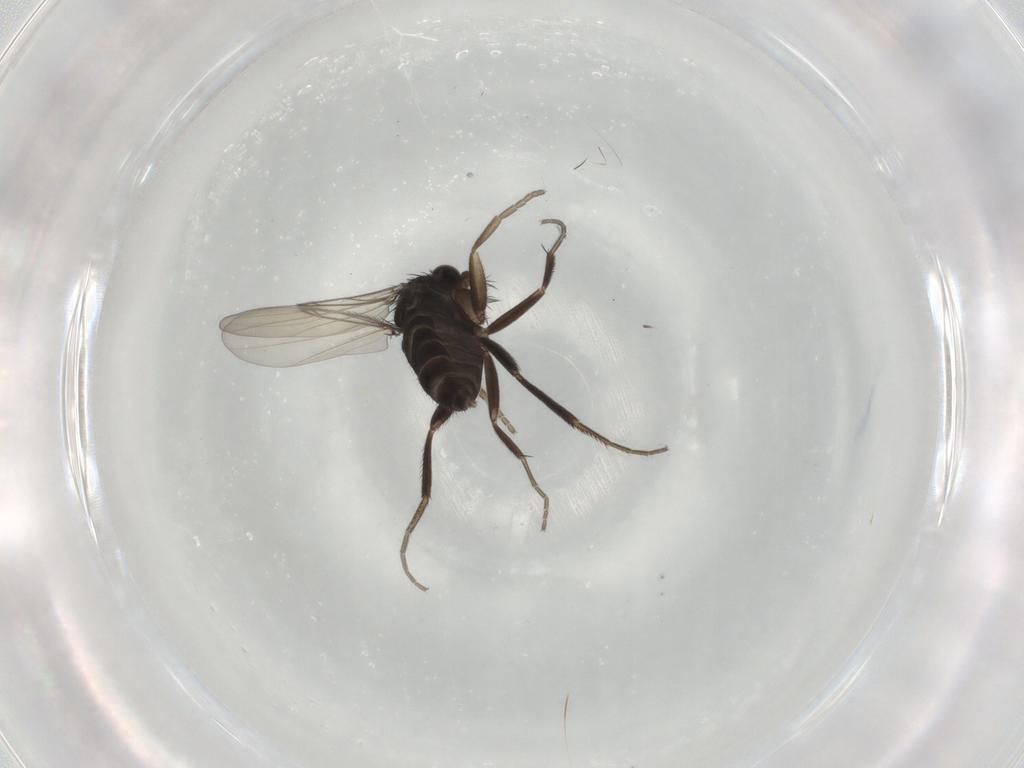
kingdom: Animalia
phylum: Arthropoda
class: Insecta
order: Diptera
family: Phoridae
